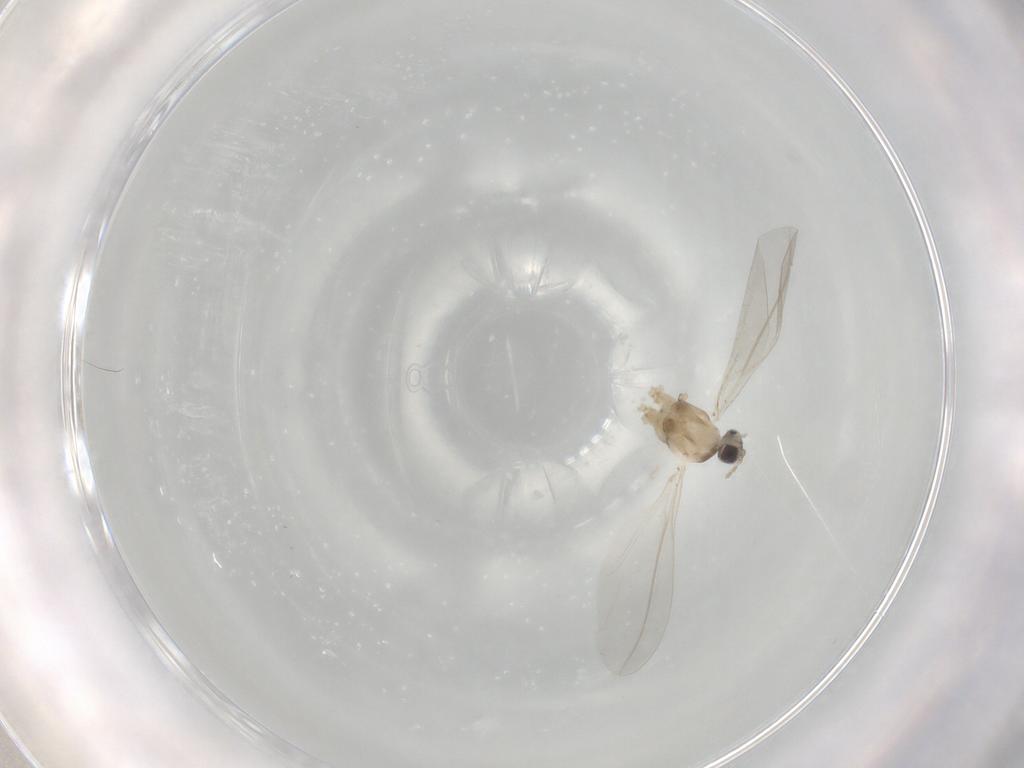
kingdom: Animalia
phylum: Arthropoda
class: Insecta
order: Diptera
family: Cecidomyiidae
